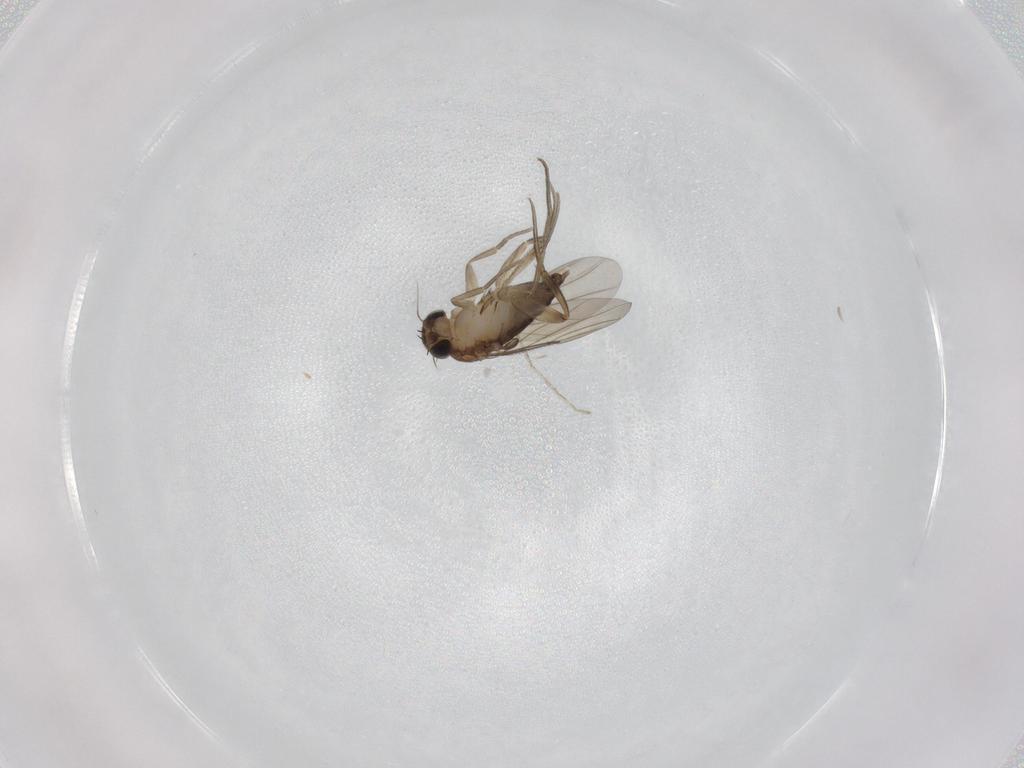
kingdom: Animalia
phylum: Arthropoda
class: Insecta
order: Diptera
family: Phoridae
